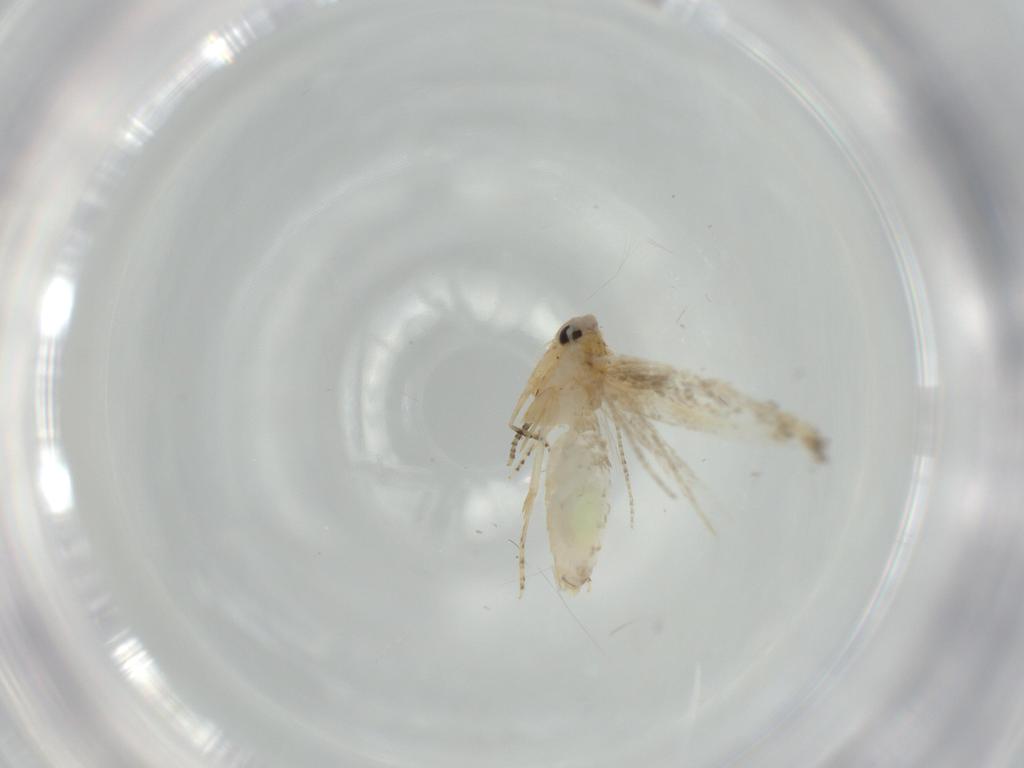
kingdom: Animalia
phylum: Arthropoda
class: Insecta
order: Lepidoptera
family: Bucculatricidae
